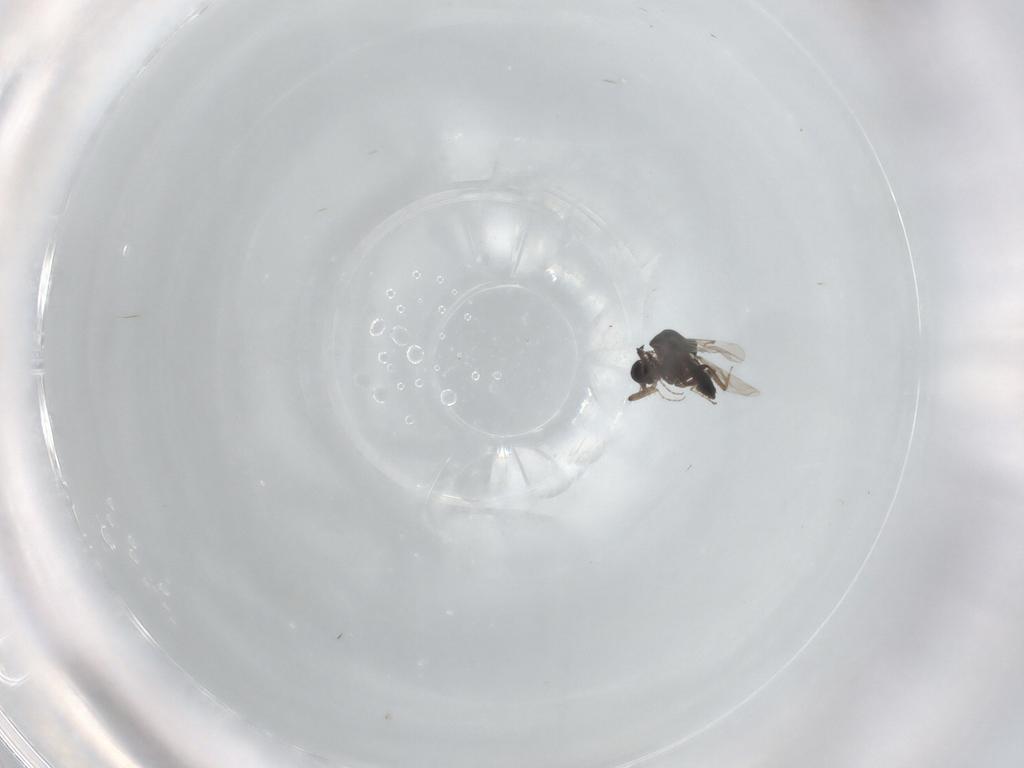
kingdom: Animalia
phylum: Arthropoda
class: Insecta
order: Diptera
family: Ceratopogonidae
